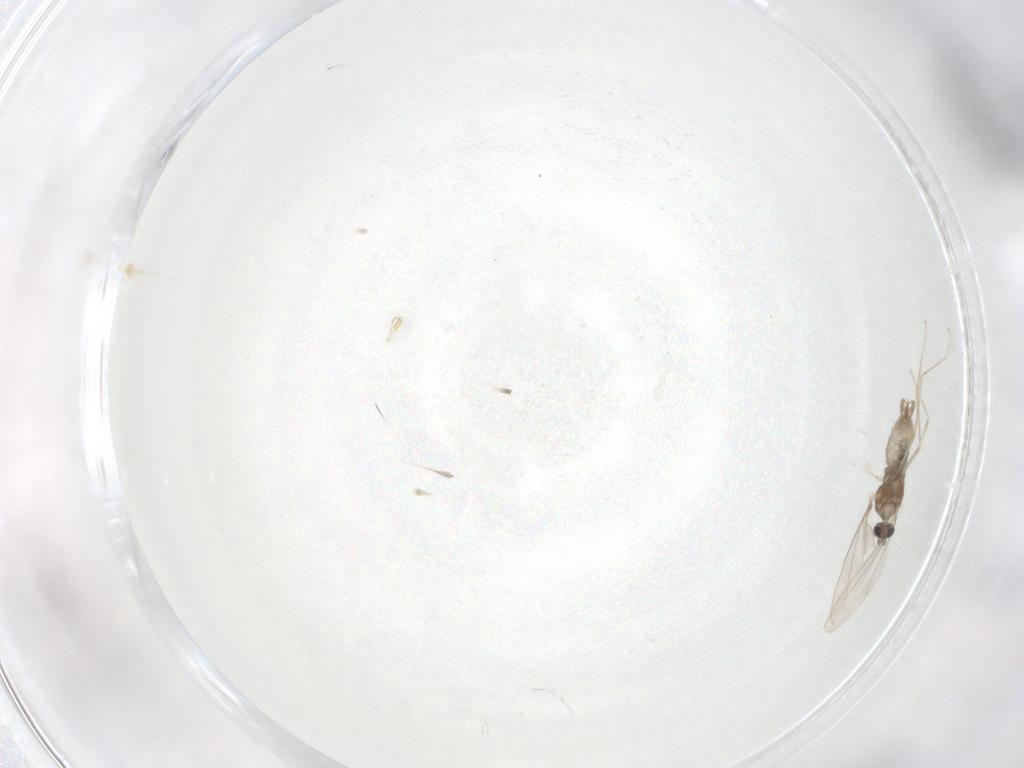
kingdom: Animalia
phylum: Arthropoda
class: Insecta
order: Diptera
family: Cecidomyiidae
